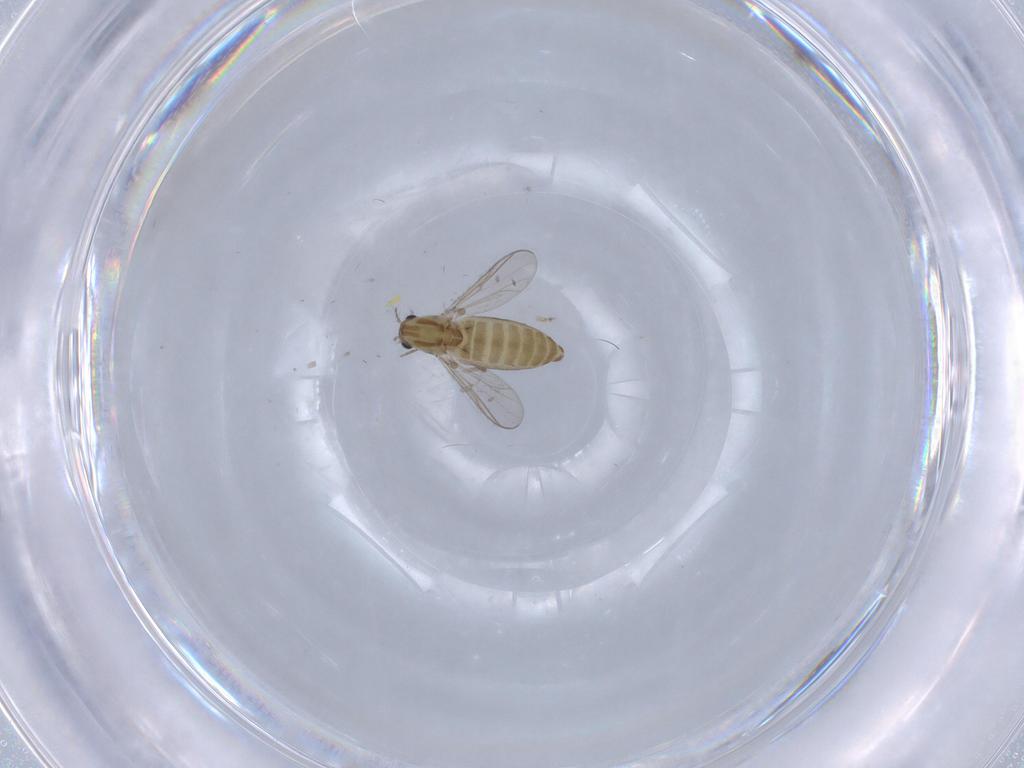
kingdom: Animalia
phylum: Arthropoda
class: Insecta
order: Diptera
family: Chironomidae
